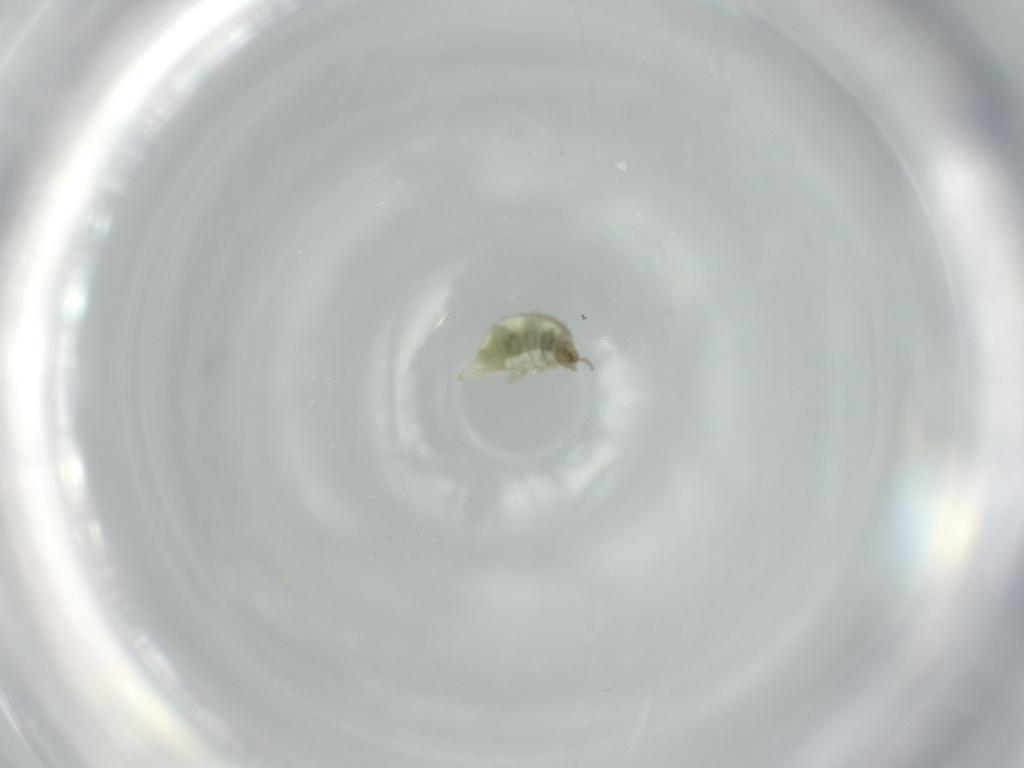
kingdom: Animalia
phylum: Arthropoda
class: Insecta
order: Neuroptera
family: Coniopterygidae
